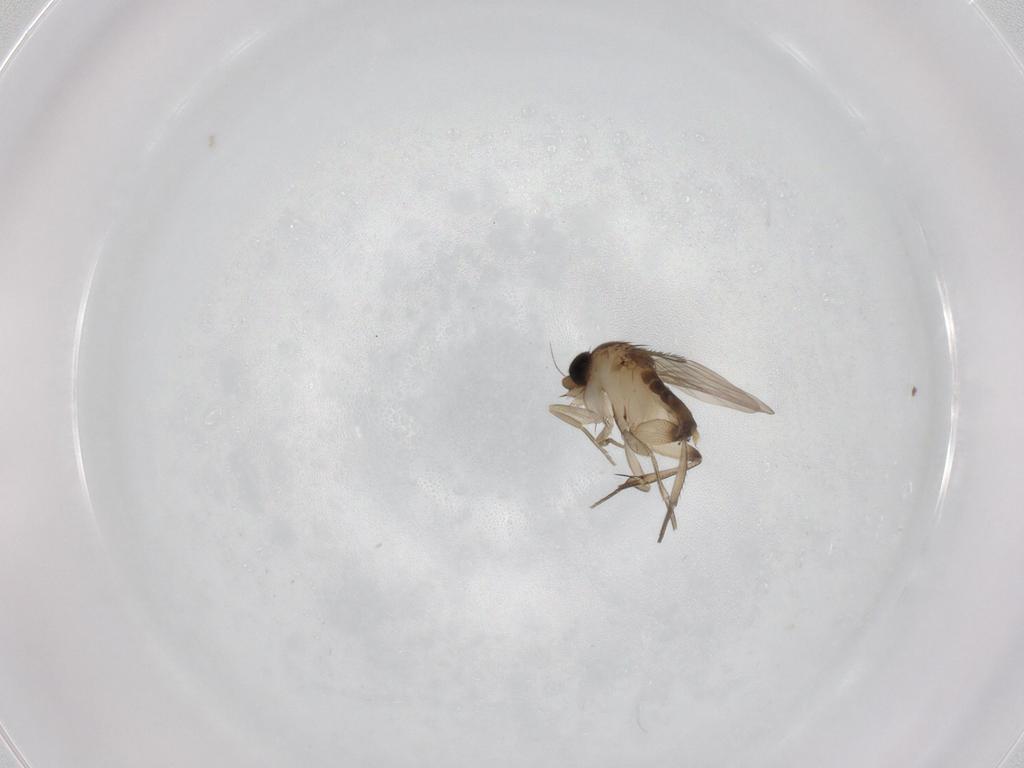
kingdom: Animalia
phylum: Arthropoda
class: Insecta
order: Diptera
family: Phoridae
